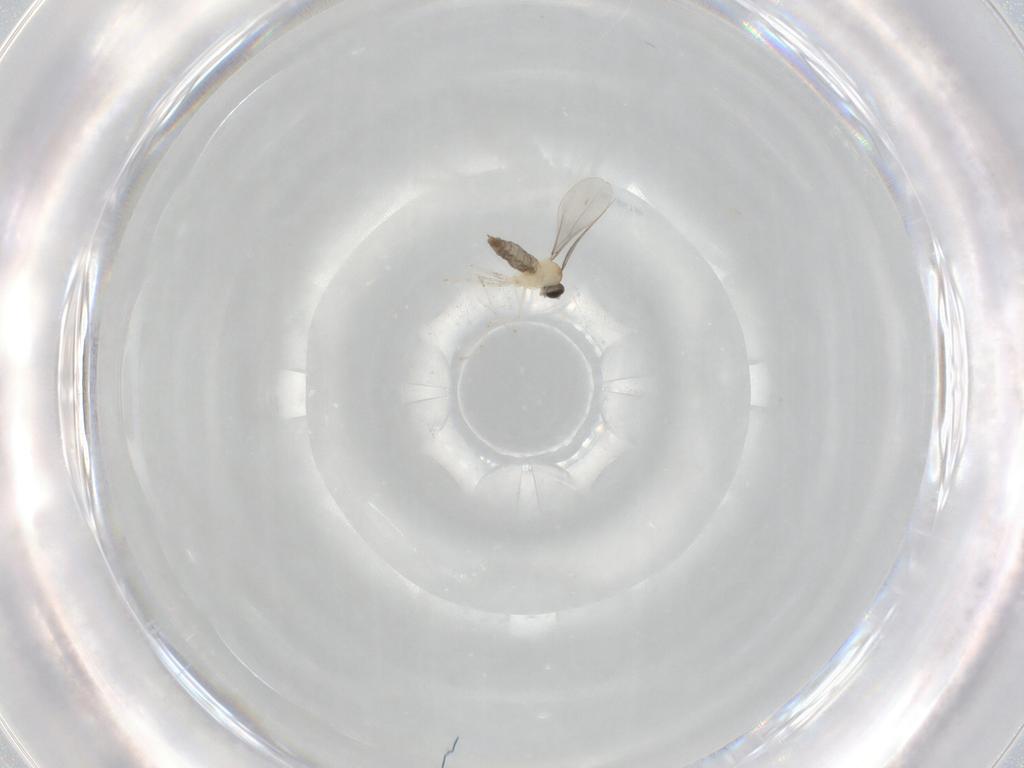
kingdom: Animalia
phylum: Arthropoda
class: Insecta
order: Diptera
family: Cecidomyiidae
